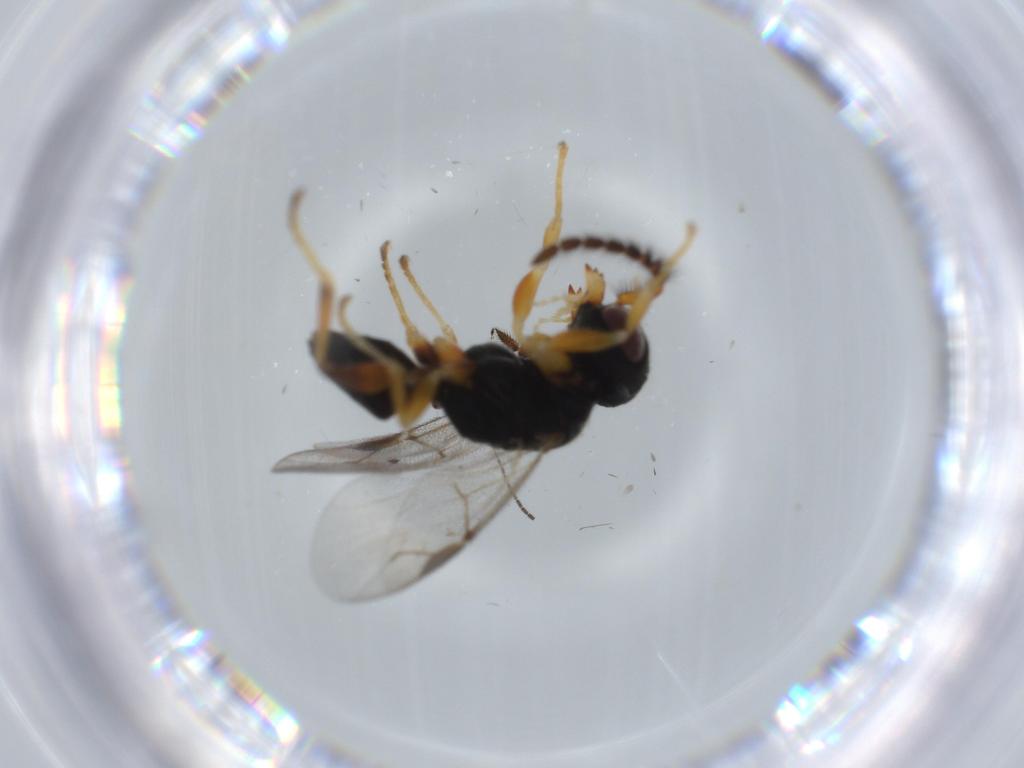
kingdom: Animalia
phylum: Arthropoda
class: Insecta
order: Hymenoptera
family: Dryinidae
